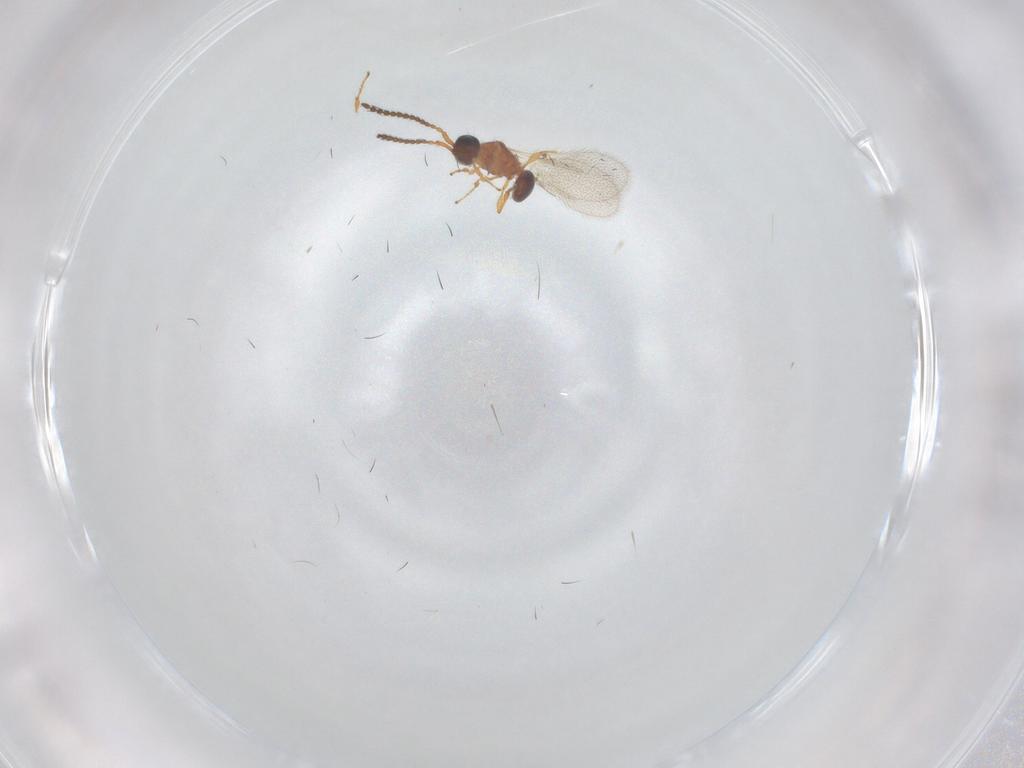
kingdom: Animalia
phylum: Arthropoda
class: Insecta
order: Hymenoptera
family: Diapriidae
